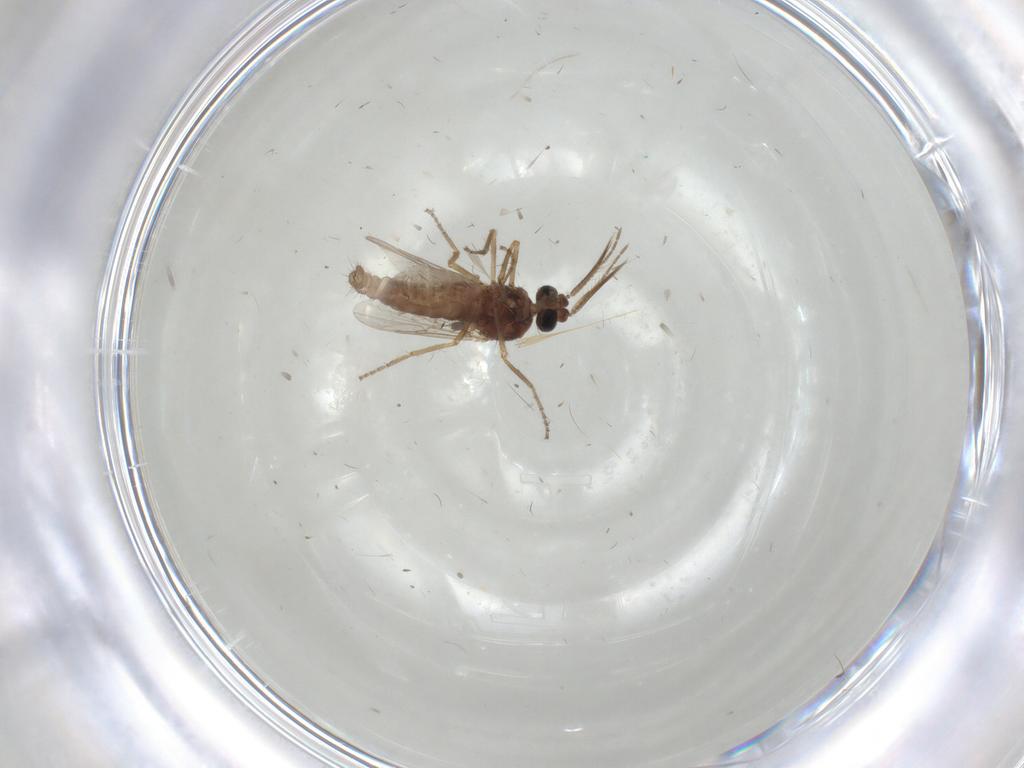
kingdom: Animalia
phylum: Arthropoda
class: Insecta
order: Diptera
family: Ceratopogonidae
